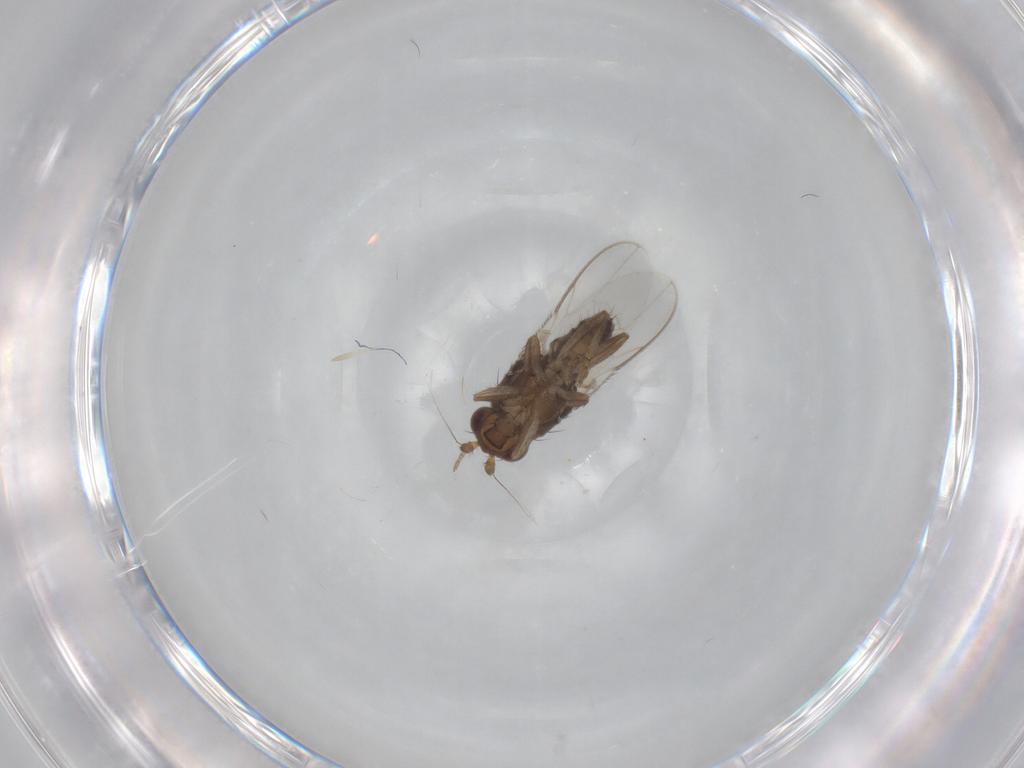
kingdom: Animalia
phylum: Arthropoda
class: Insecta
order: Diptera
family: Sphaeroceridae
